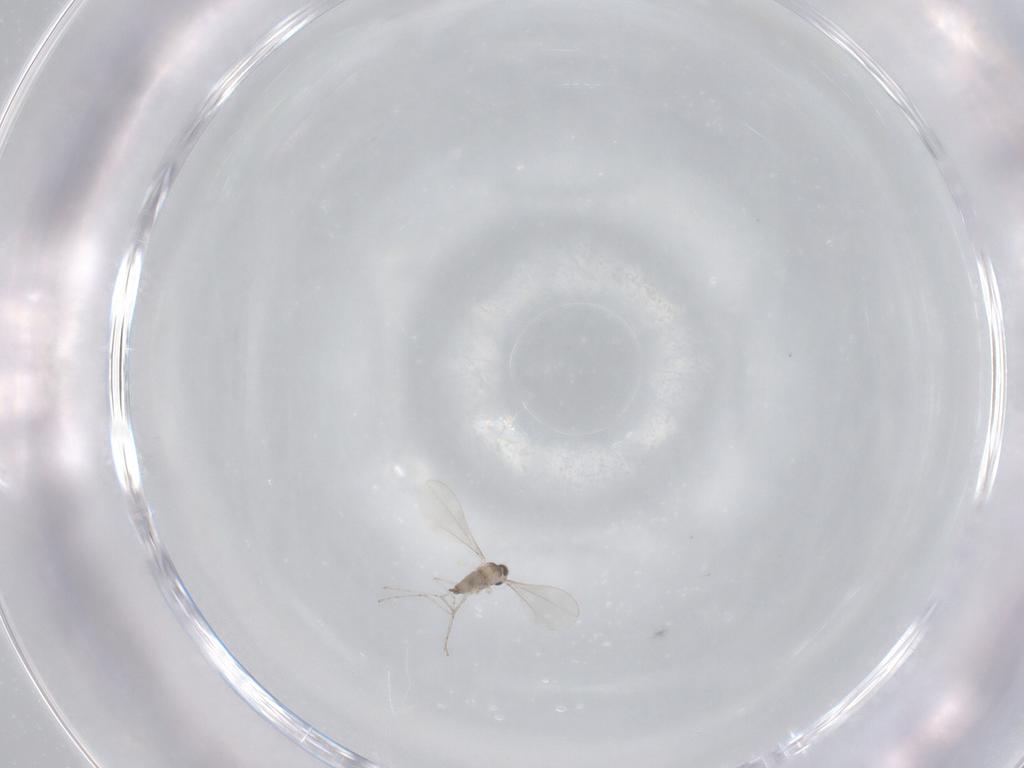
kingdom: Animalia
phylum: Arthropoda
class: Insecta
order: Diptera
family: Cecidomyiidae
